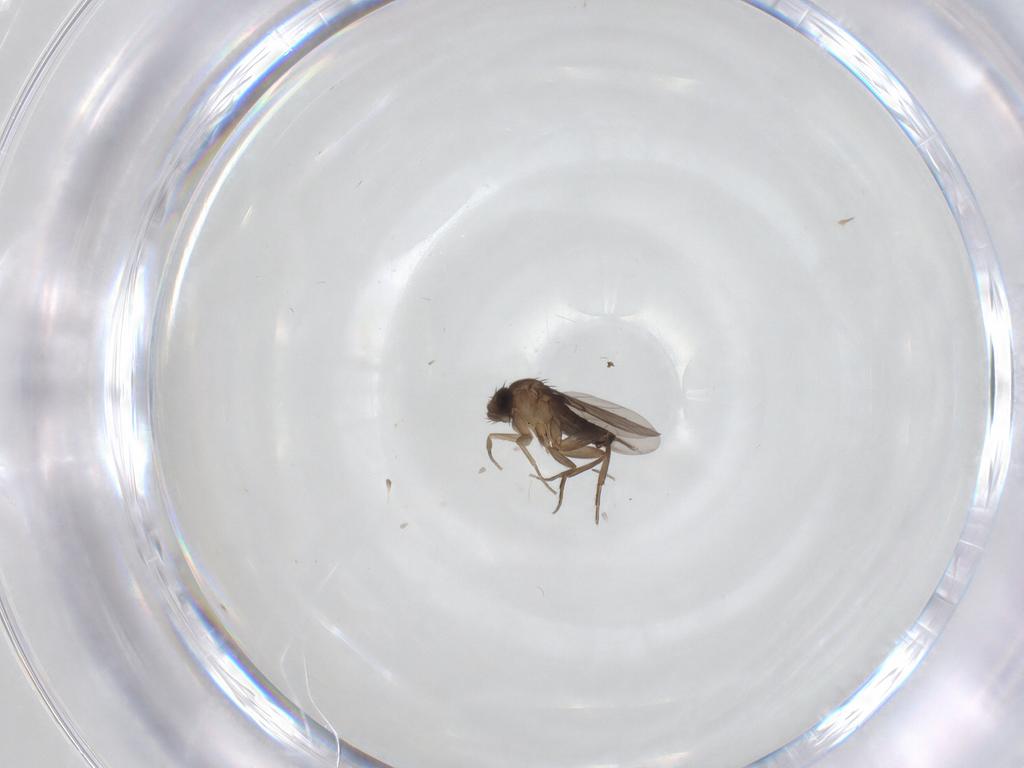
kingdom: Animalia
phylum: Arthropoda
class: Insecta
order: Diptera
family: Phoridae
